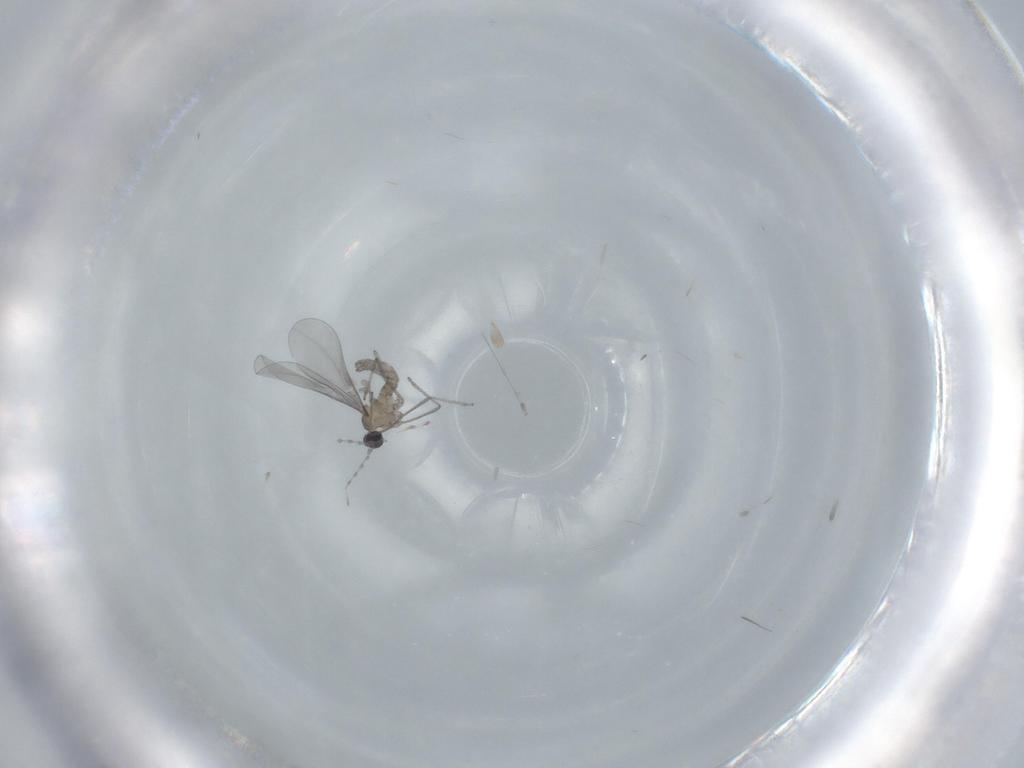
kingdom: Animalia
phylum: Arthropoda
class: Insecta
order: Diptera
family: Cecidomyiidae
